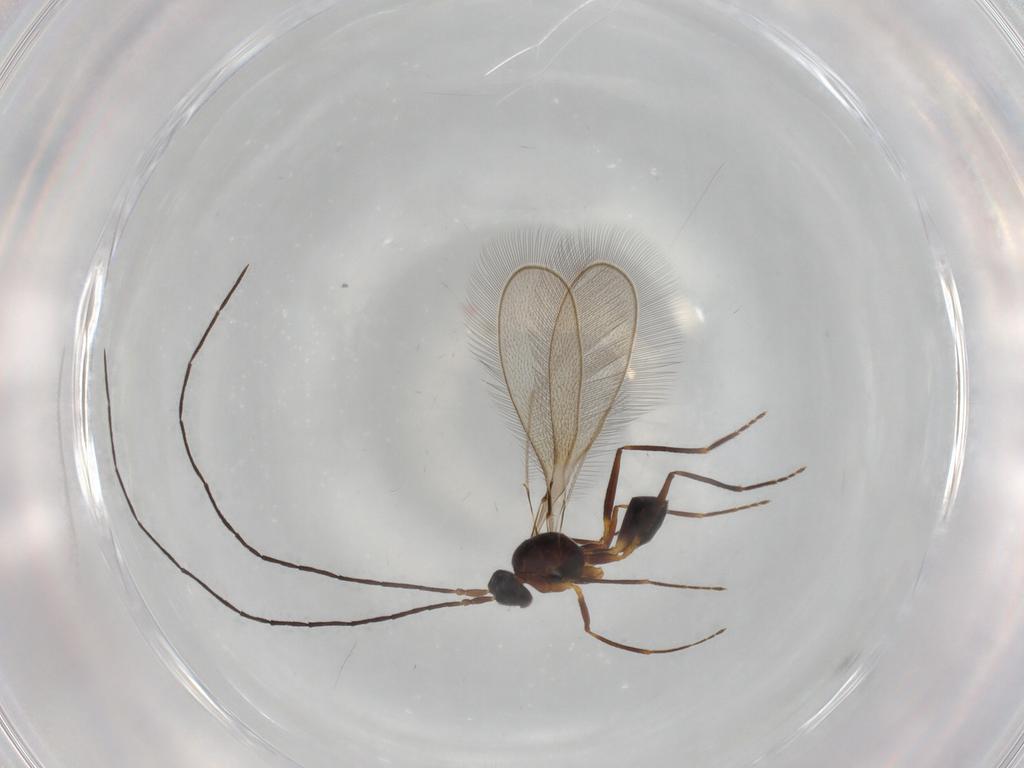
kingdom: Animalia
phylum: Arthropoda
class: Insecta
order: Hymenoptera
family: Mymaridae
